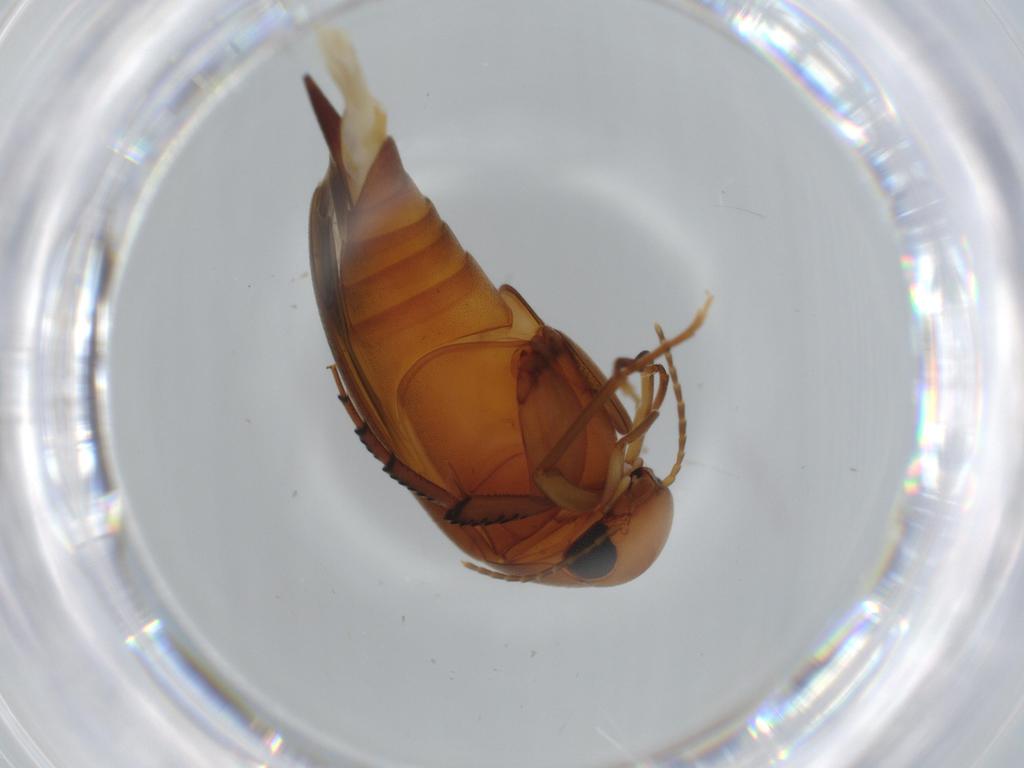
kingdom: Animalia
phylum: Arthropoda
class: Insecta
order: Coleoptera
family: Mordellidae
